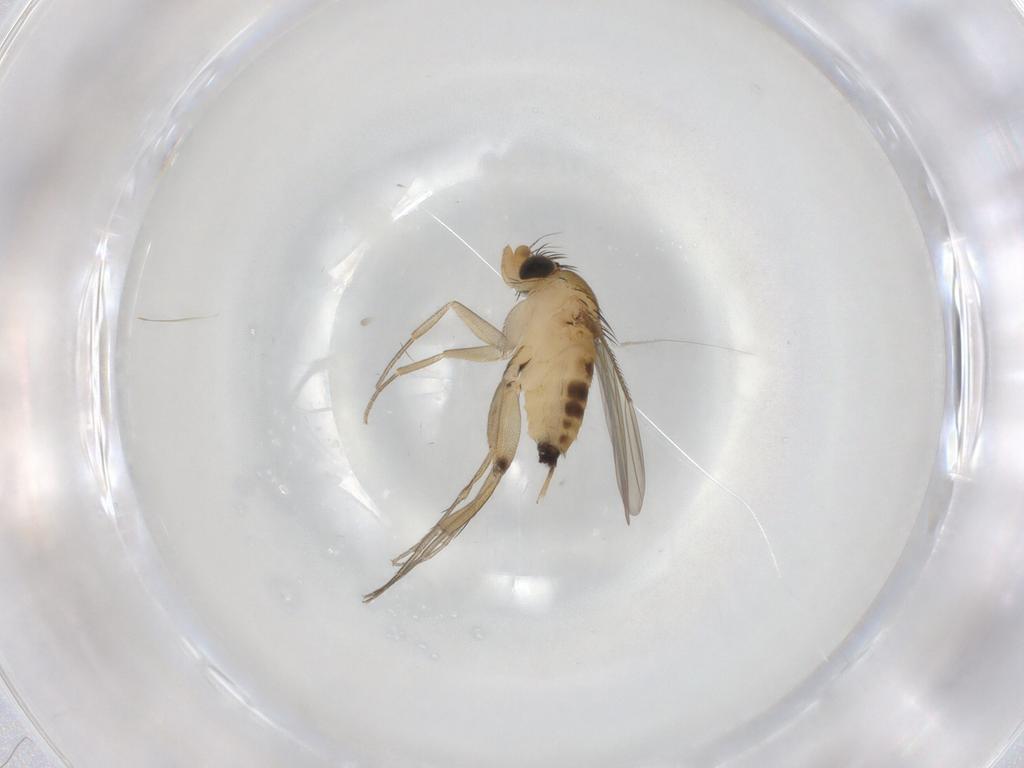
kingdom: Animalia
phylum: Arthropoda
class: Insecta
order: Diptera
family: Phoridae
